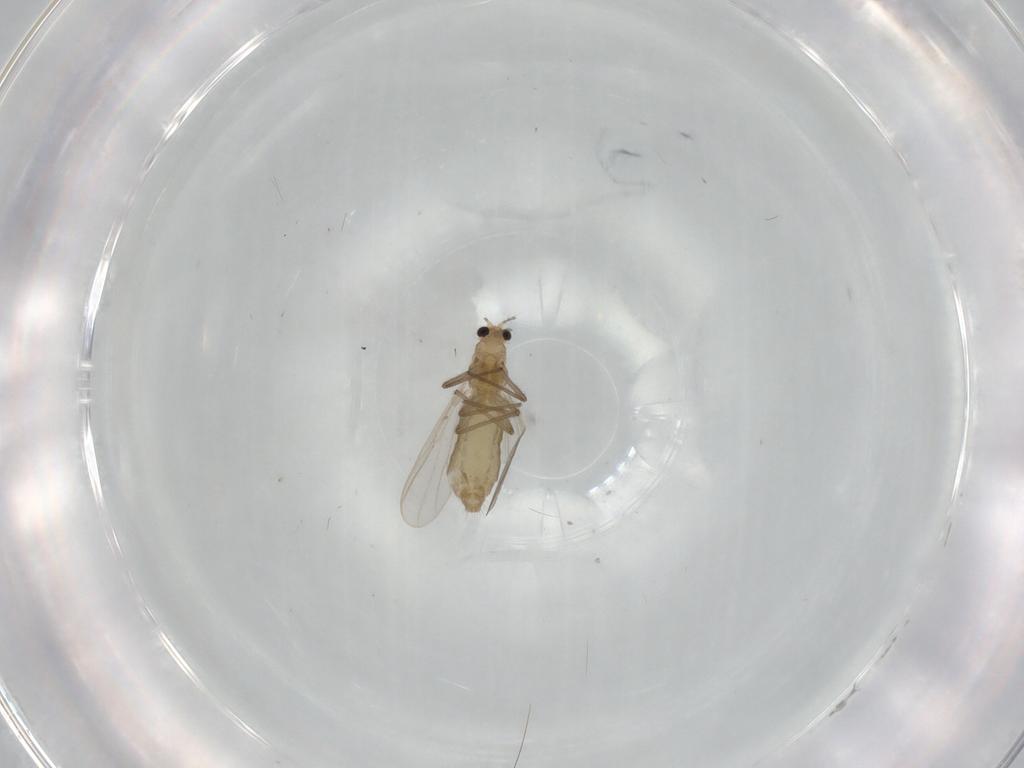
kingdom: Animalia
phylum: Arthropoda
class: Insecta
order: Diptera
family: Chironomidae
